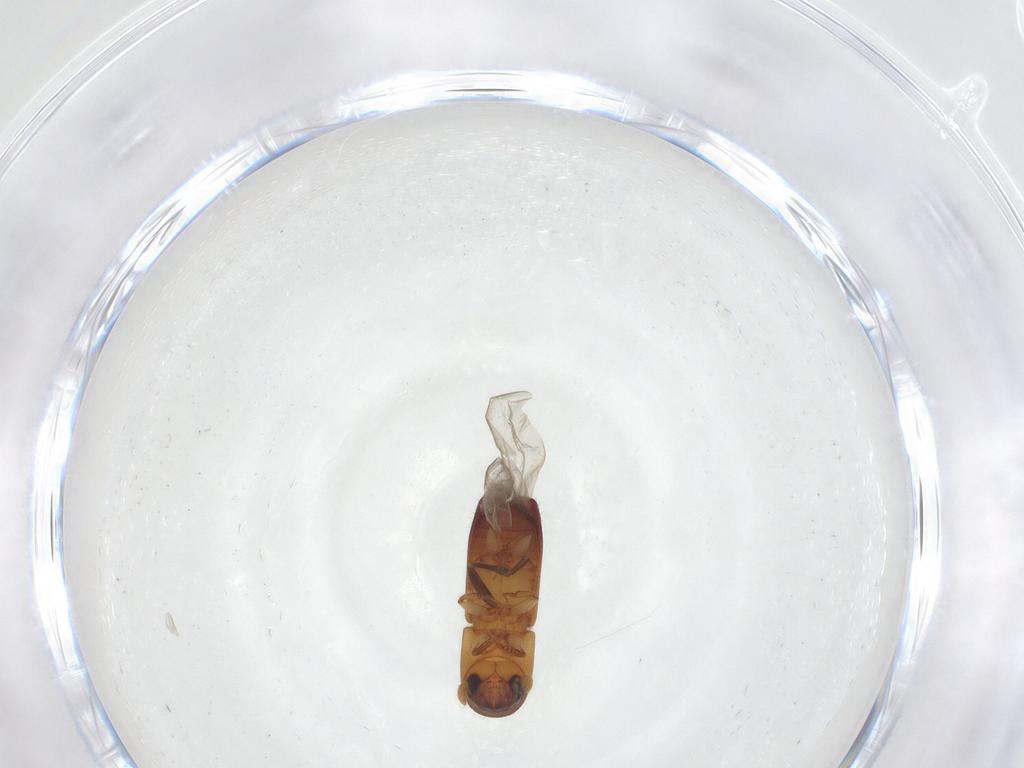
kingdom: Animalia
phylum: Arthropoda
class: Insecta
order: Coleoptera
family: Curculionidae
